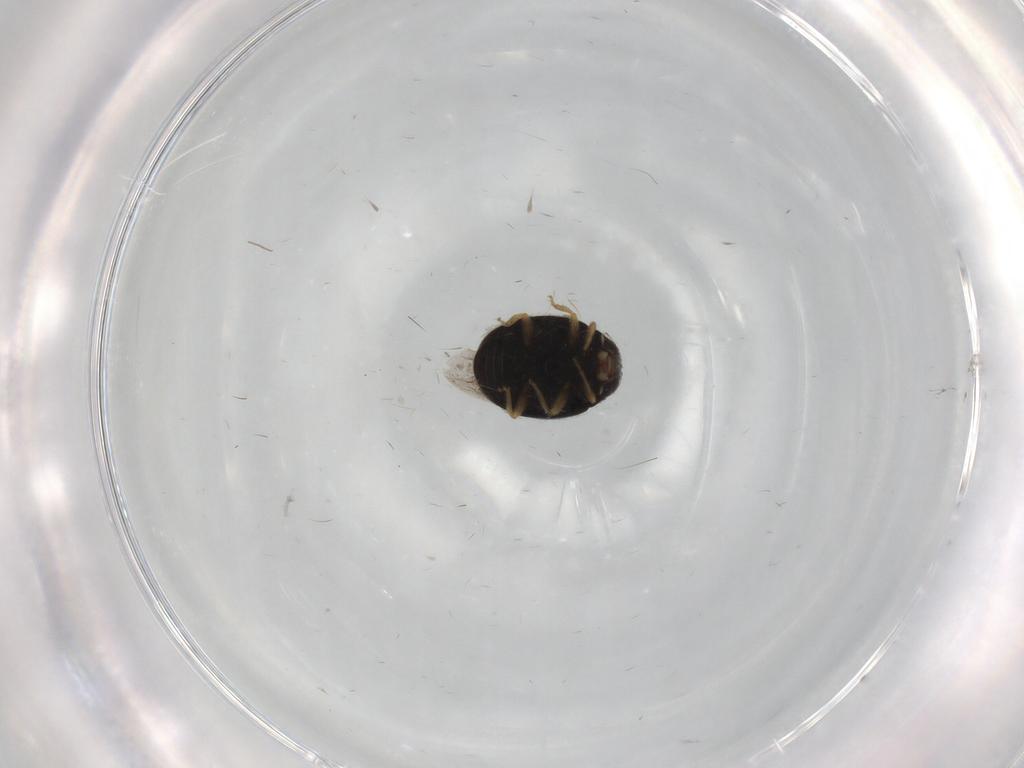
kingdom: Animalia
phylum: Arthropoda
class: Insecta
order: Coleoptera
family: Coccinellidae
